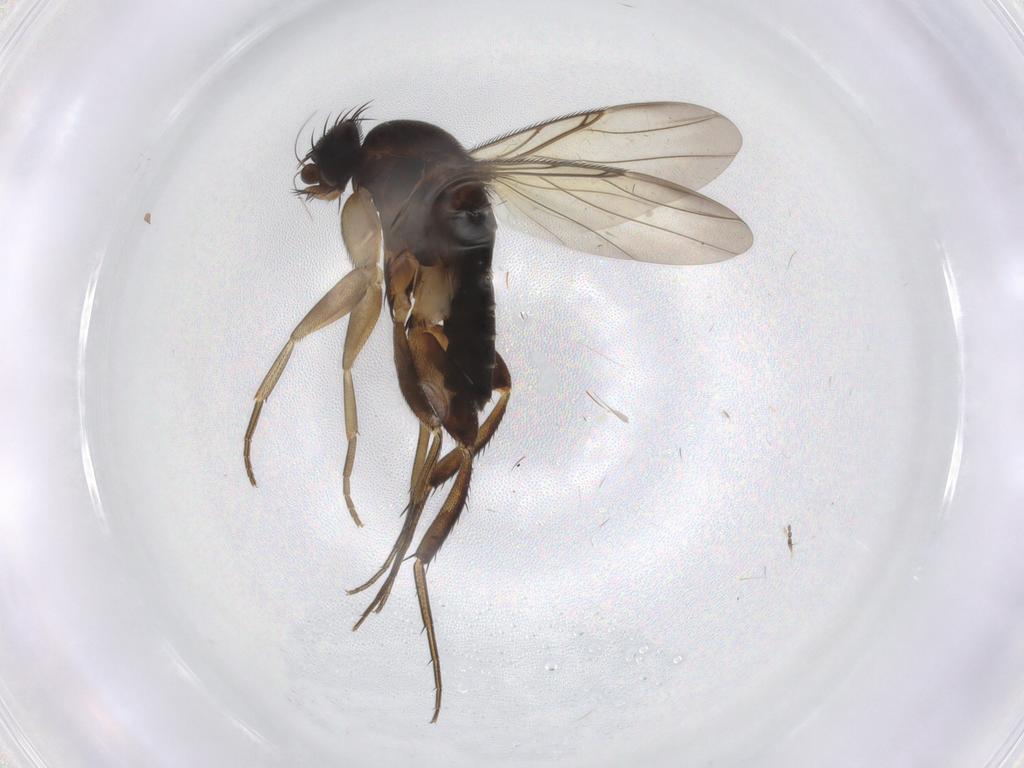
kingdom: Animalia
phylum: Arthropoda
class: Insecta
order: Diptera
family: Phoridae
